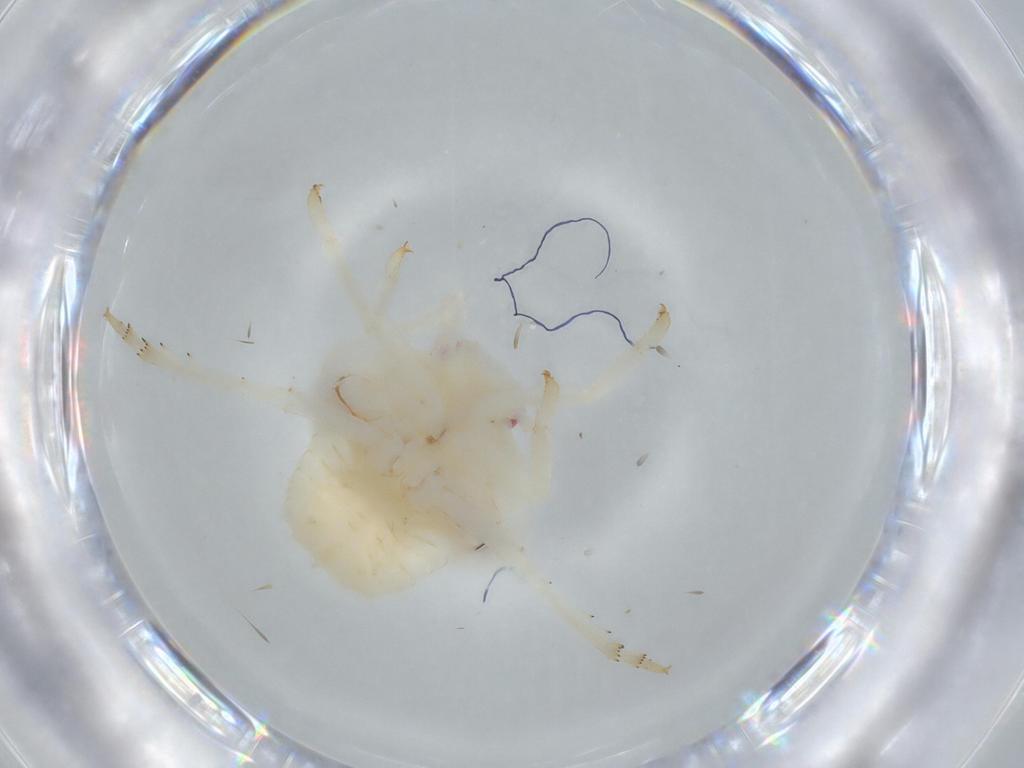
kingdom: Animalia
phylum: Arthropoda
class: Insecta
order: Hemiptera
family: Flatidae
